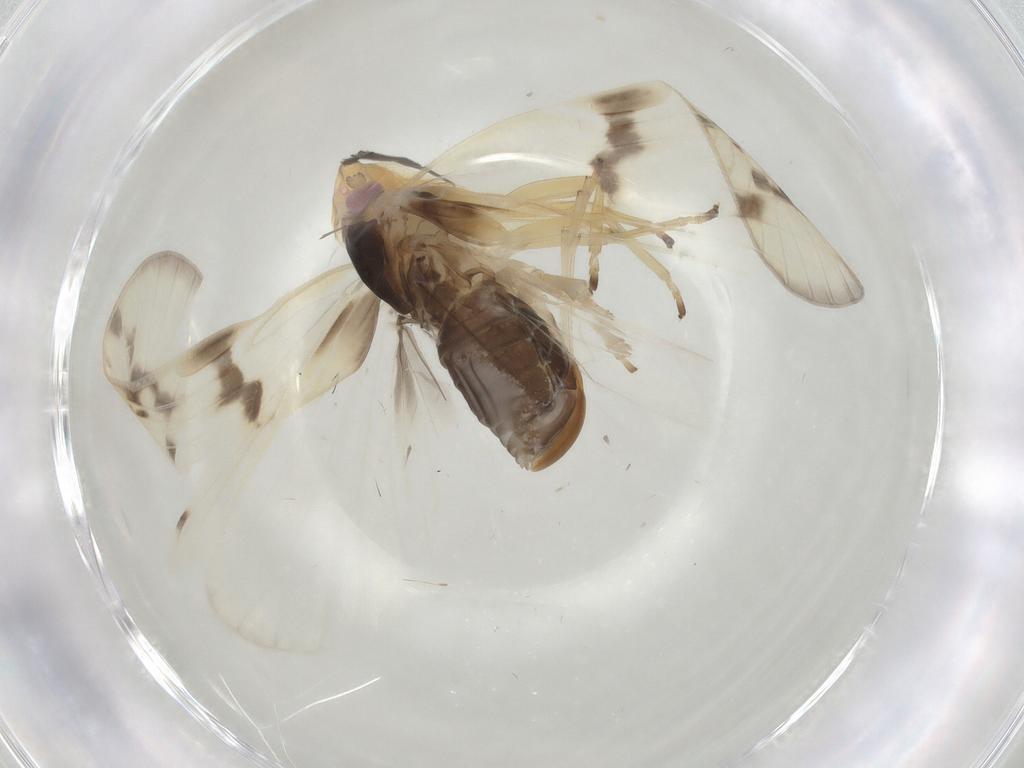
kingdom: Animalia
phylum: Arthropoda
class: Insecta
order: Hemiptera
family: Cixiidae
